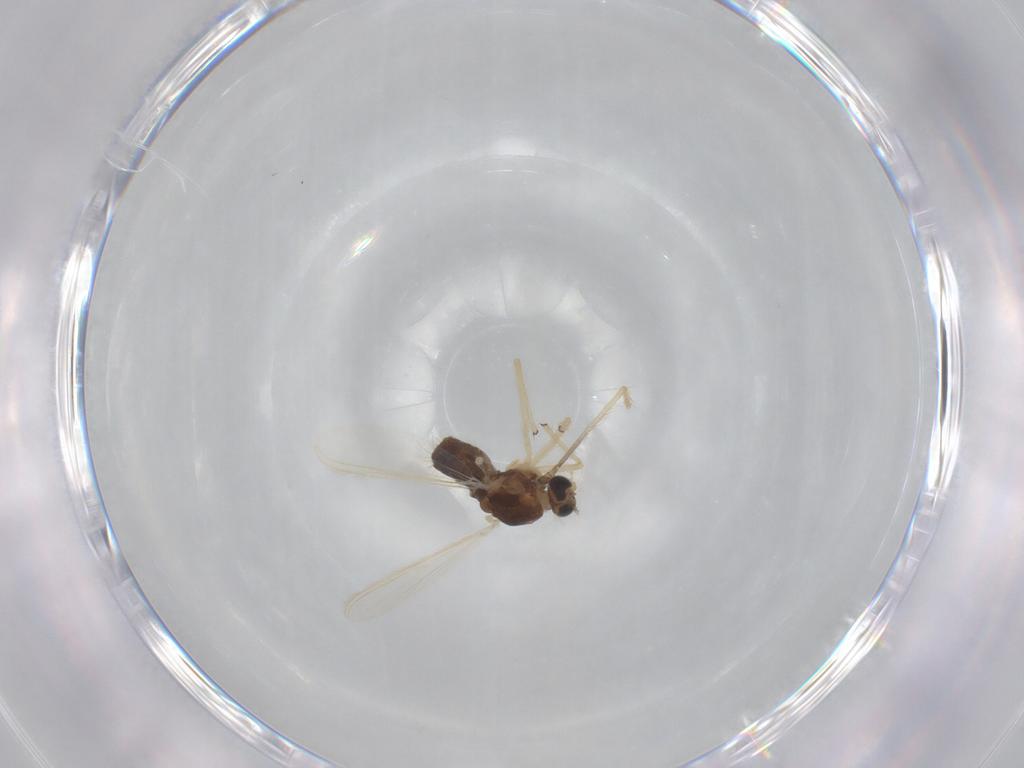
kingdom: Animalia
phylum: Arthropoda
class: Insecta
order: Diptera
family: Chironomidae
